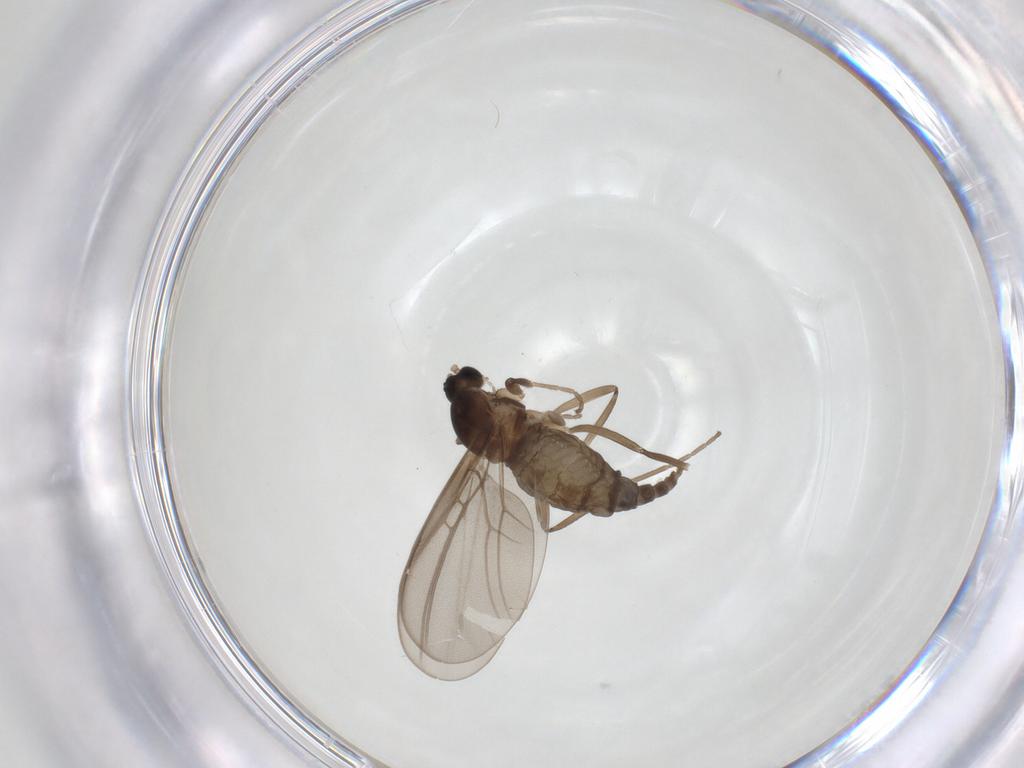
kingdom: Animalia
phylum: Arthropoda
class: Insecta
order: Diptera
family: Cecidomyiidae
